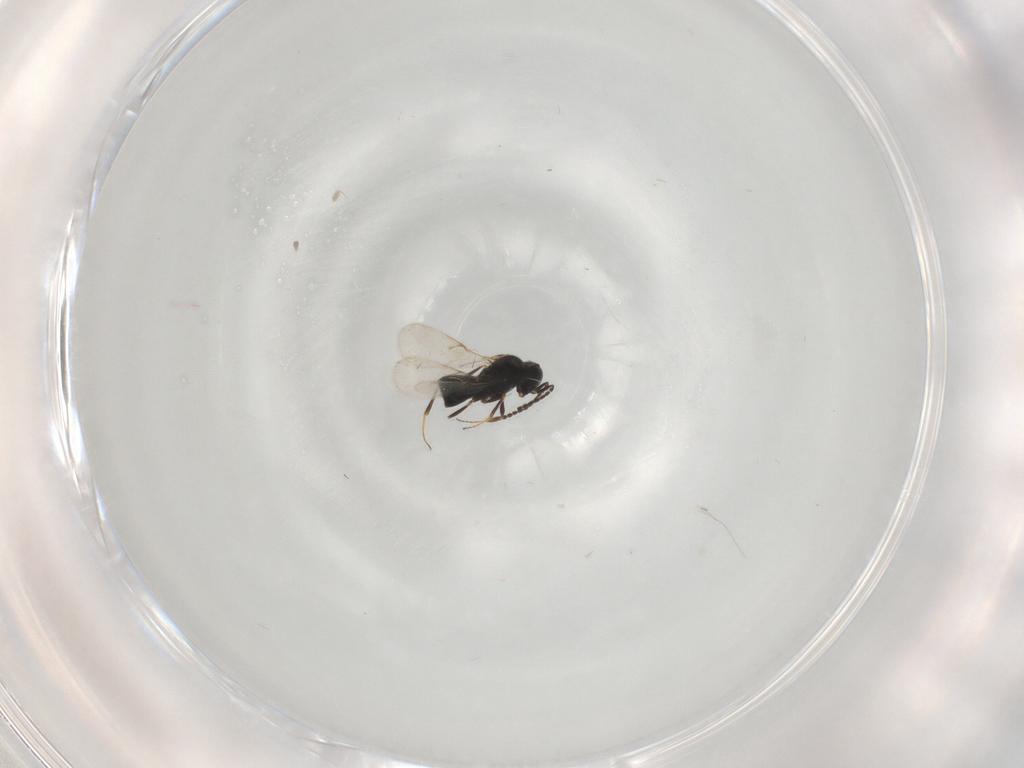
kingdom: Animalia
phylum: Arthropoda
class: Insecta
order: Hymenoptera
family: Scelionidae
